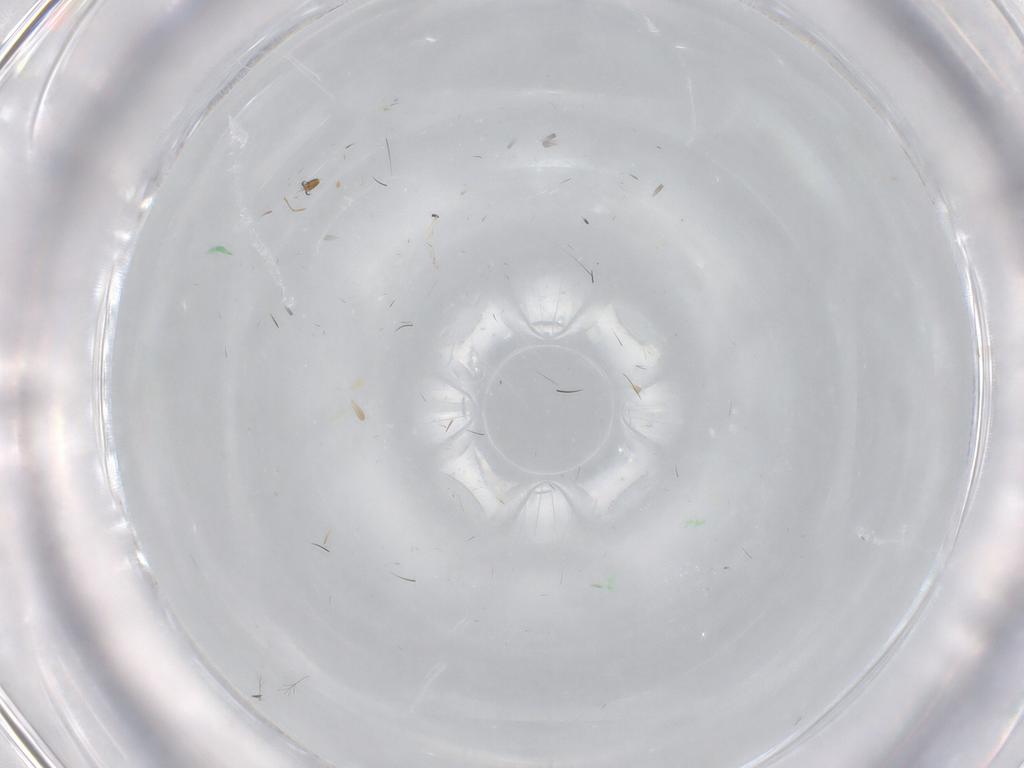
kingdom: Animalia
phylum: Arthropoda
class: Insecta
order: Diptera
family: Cecidomyiidae
